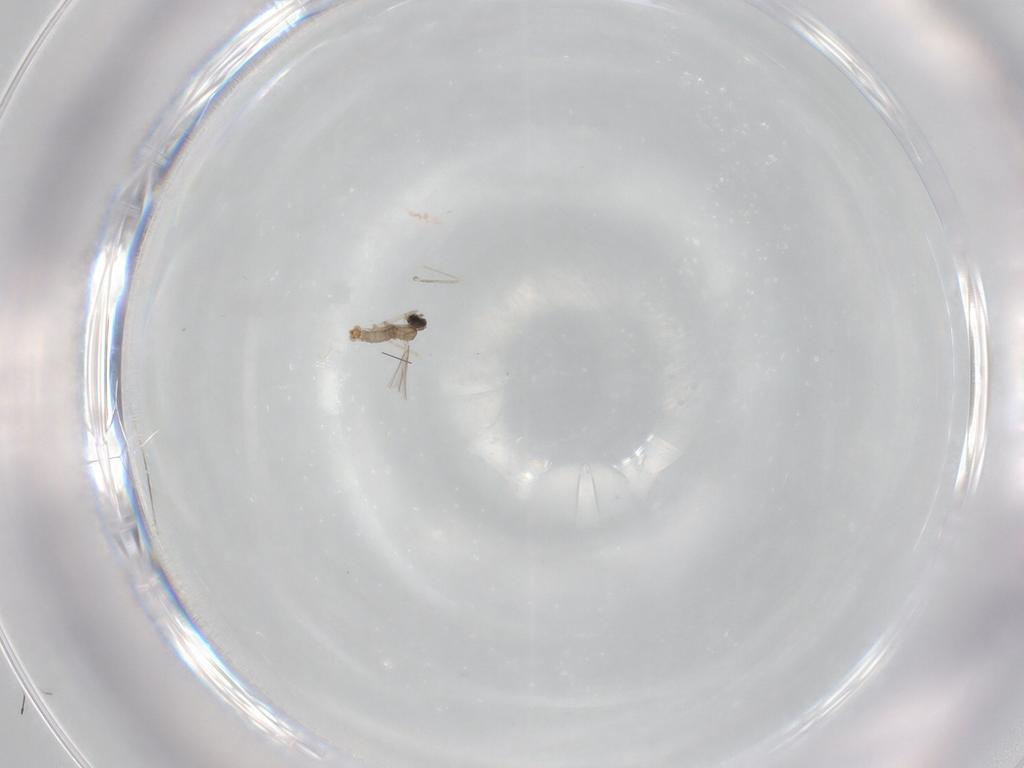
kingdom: Animalia
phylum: Arthropoda
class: Insecta
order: Diptera
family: Cecidomyiidae
